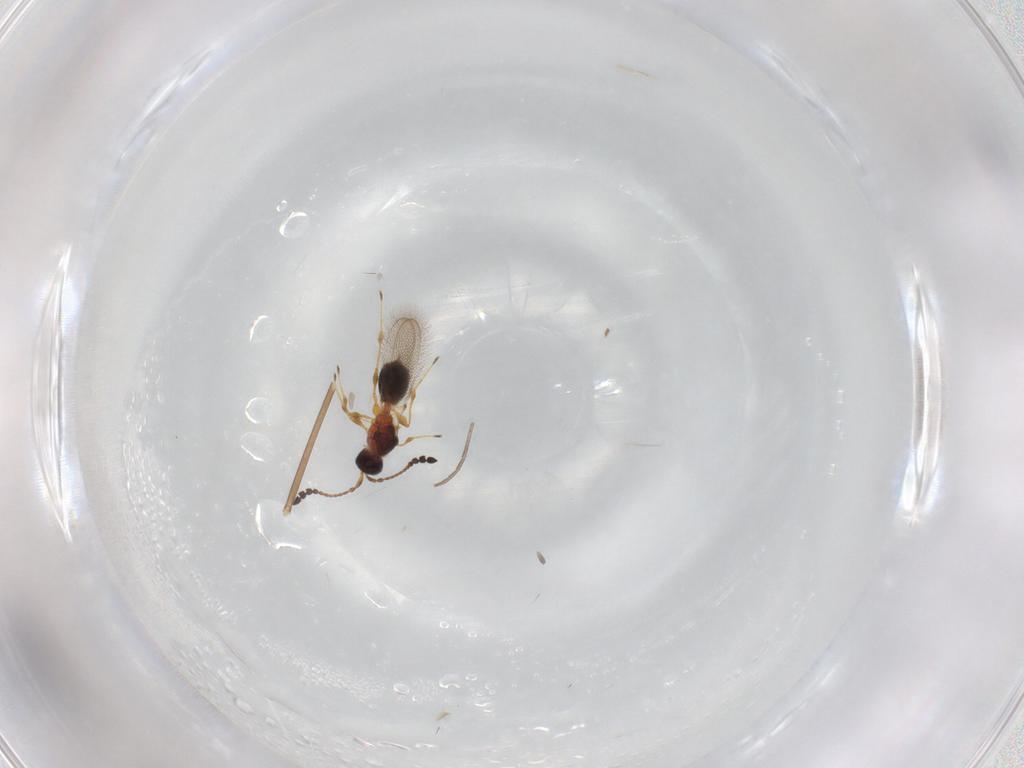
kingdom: Animalia
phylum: Arthropoda
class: Insecta
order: Hymenoptera
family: Diapriidae
